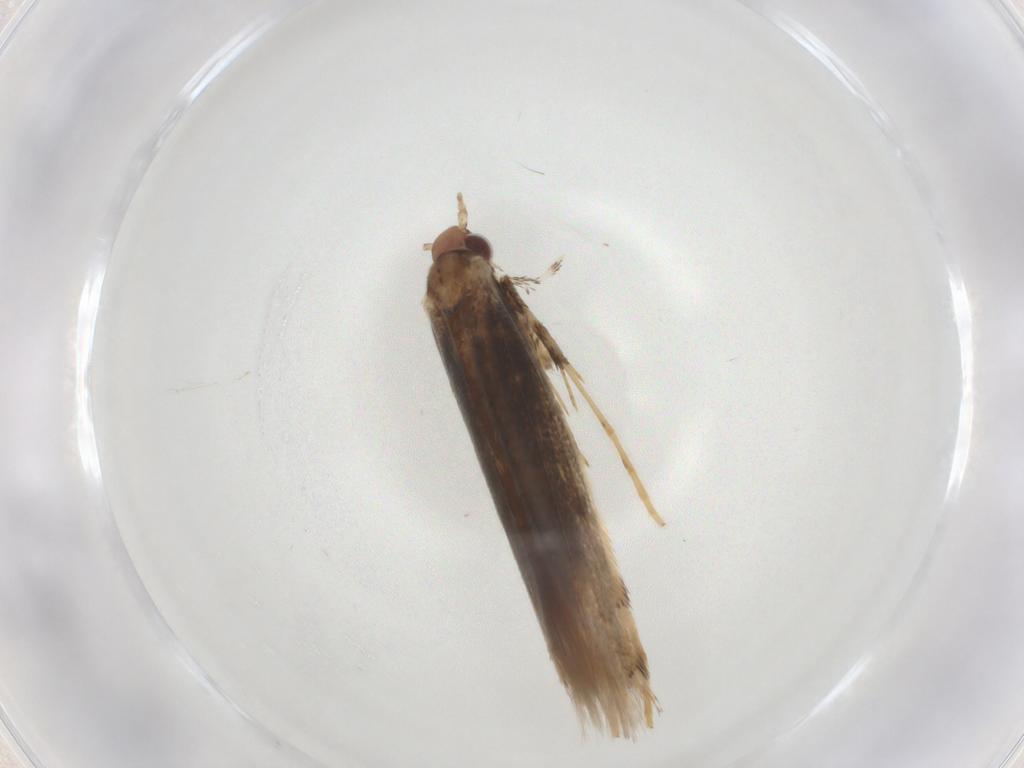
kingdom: Animalia
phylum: Arthropoda
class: Insecta
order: Lepidoptera
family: Gracillariidae
